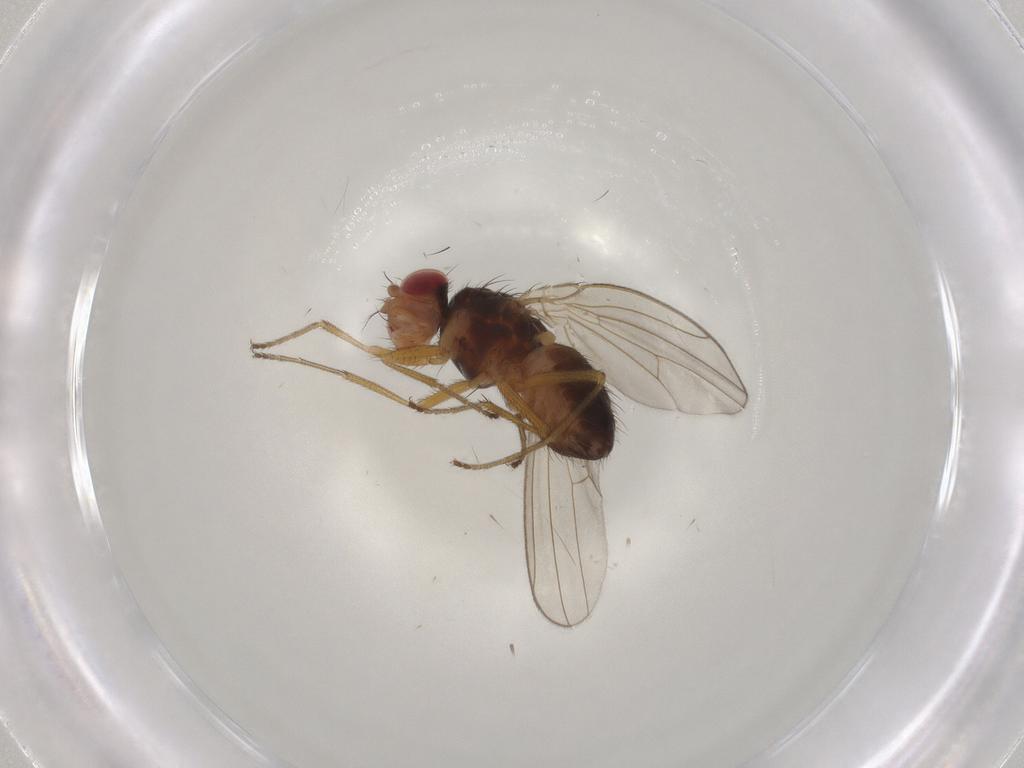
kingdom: Animalia
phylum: Arthropoda
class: Insecta
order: Diptera
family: Drosophilidae
